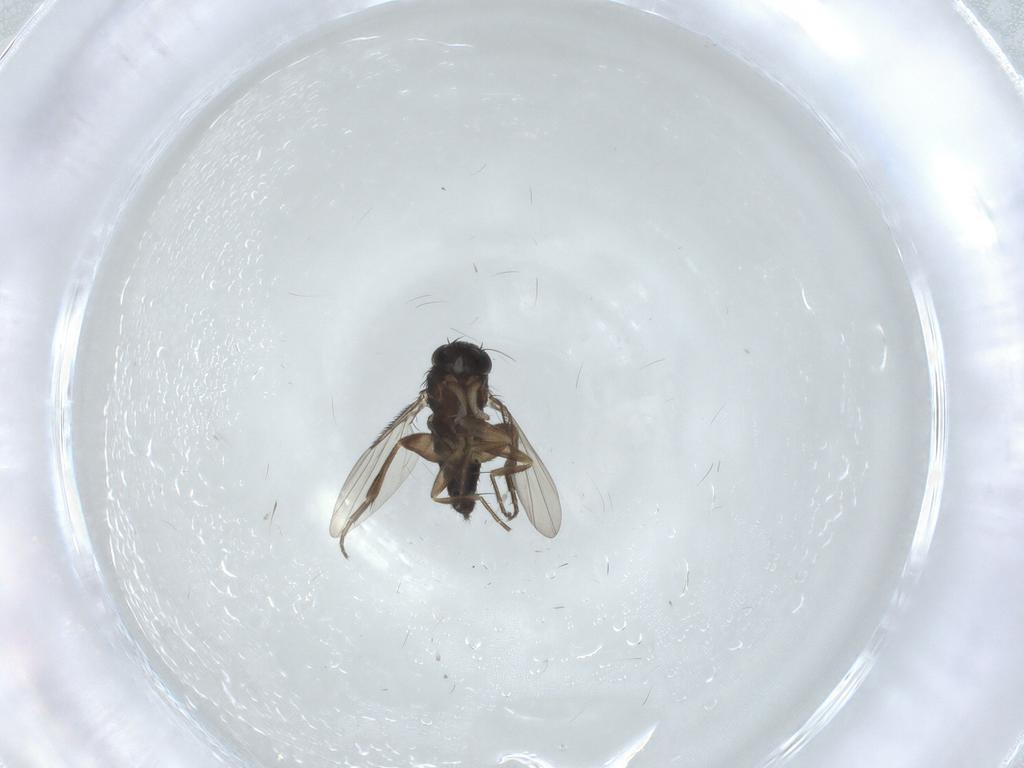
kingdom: Animalia
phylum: Arthropoda
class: Insecta
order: Diptera
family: Phoridae
